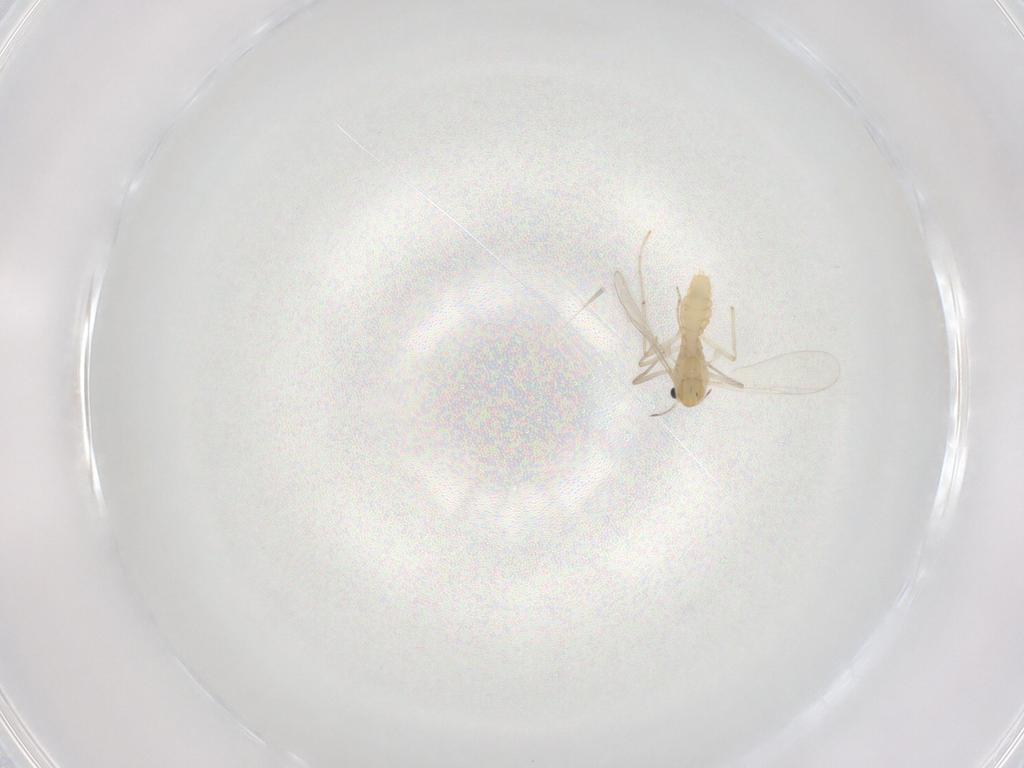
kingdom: Animalia
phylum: Arthropoda
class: Insecta
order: Diptera
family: Chironomidae
